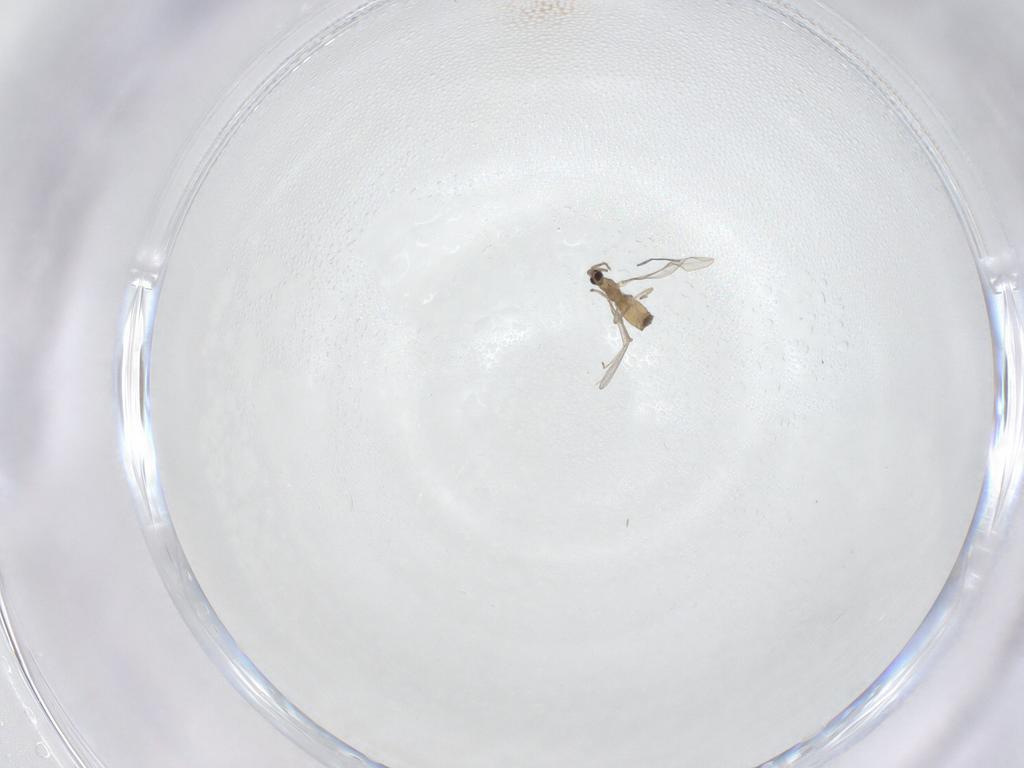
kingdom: Animalia
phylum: Arthropoda
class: Insecta
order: Diptera
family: Cecidomyiidae
